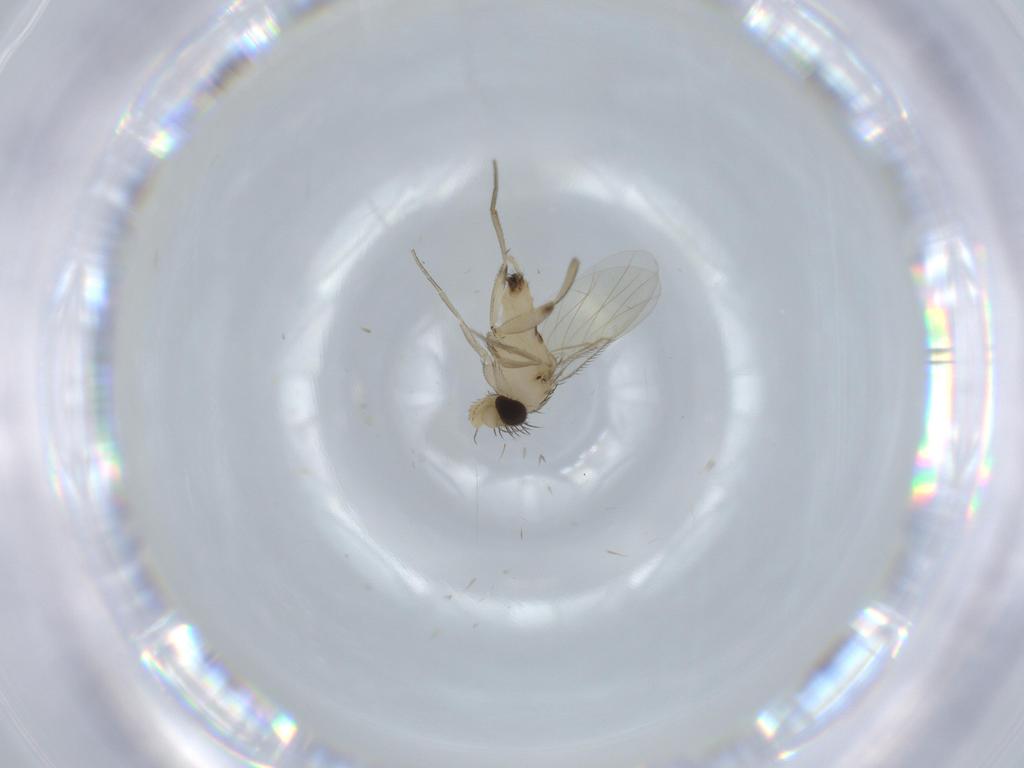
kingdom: Animalia
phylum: Arthropoda
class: Insecta
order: Diptera
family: Phoridae
